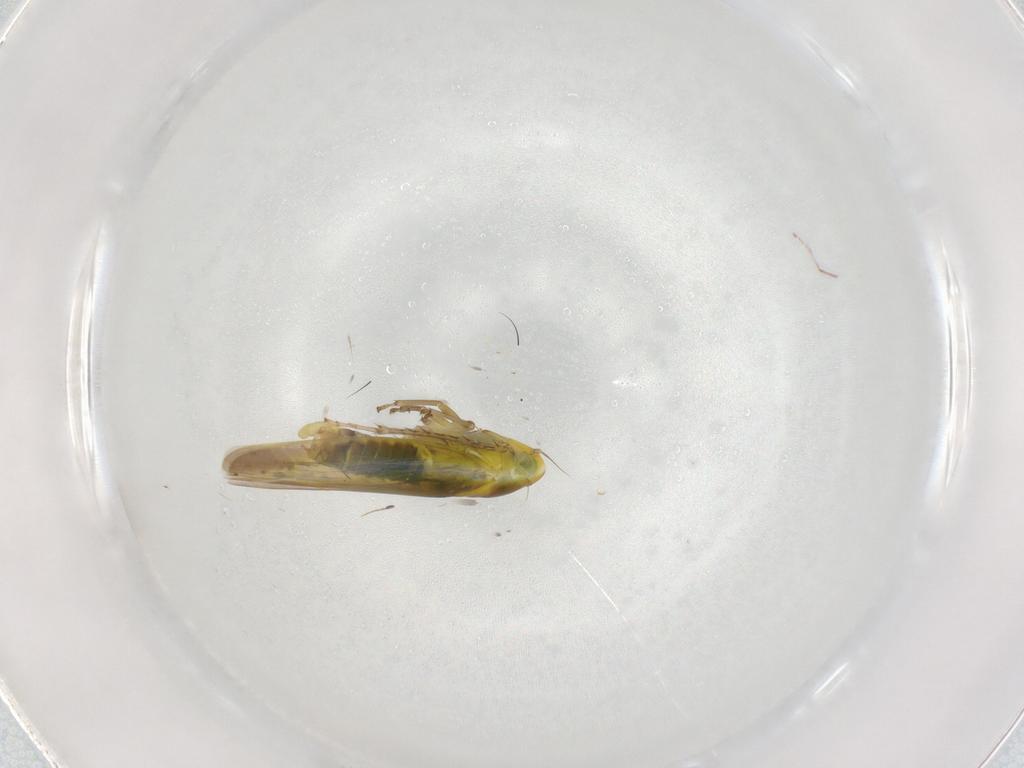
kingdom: Animalia
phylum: Arthropoda
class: Insecta
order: Hemiptera
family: Cicadellidae
